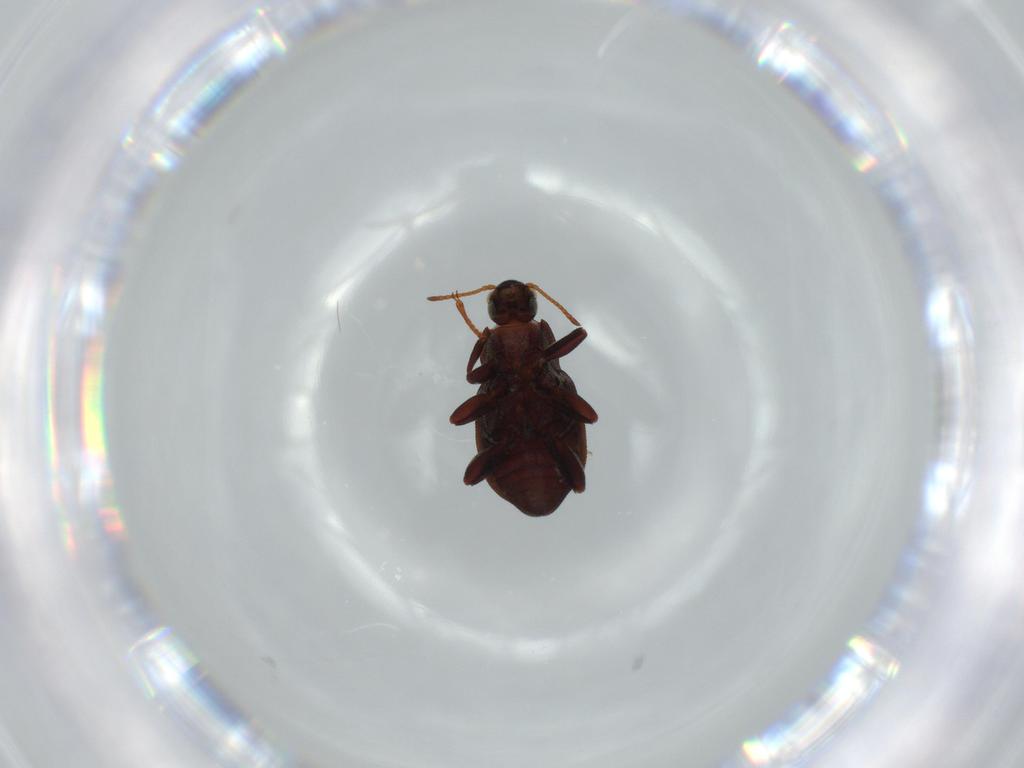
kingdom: Animalia
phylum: Arthropoda
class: Insecta
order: Coleoptera
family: Elmidae
